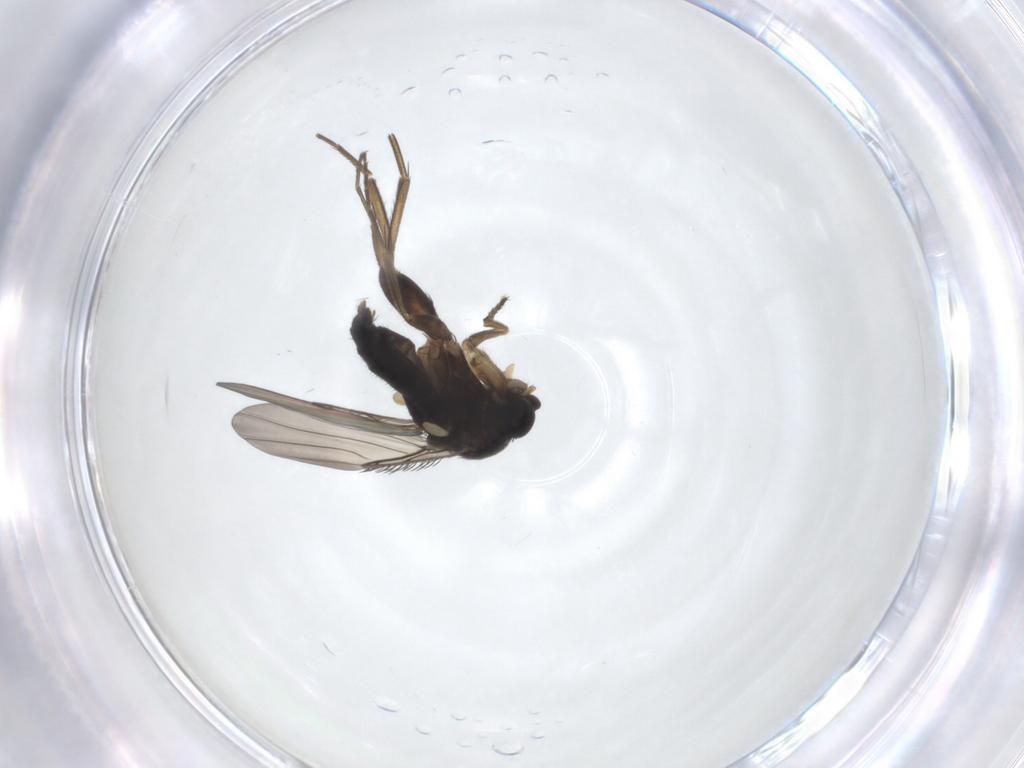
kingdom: Animalia
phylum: Arthropoda
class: Insecta
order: Diptera
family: Phoridae
